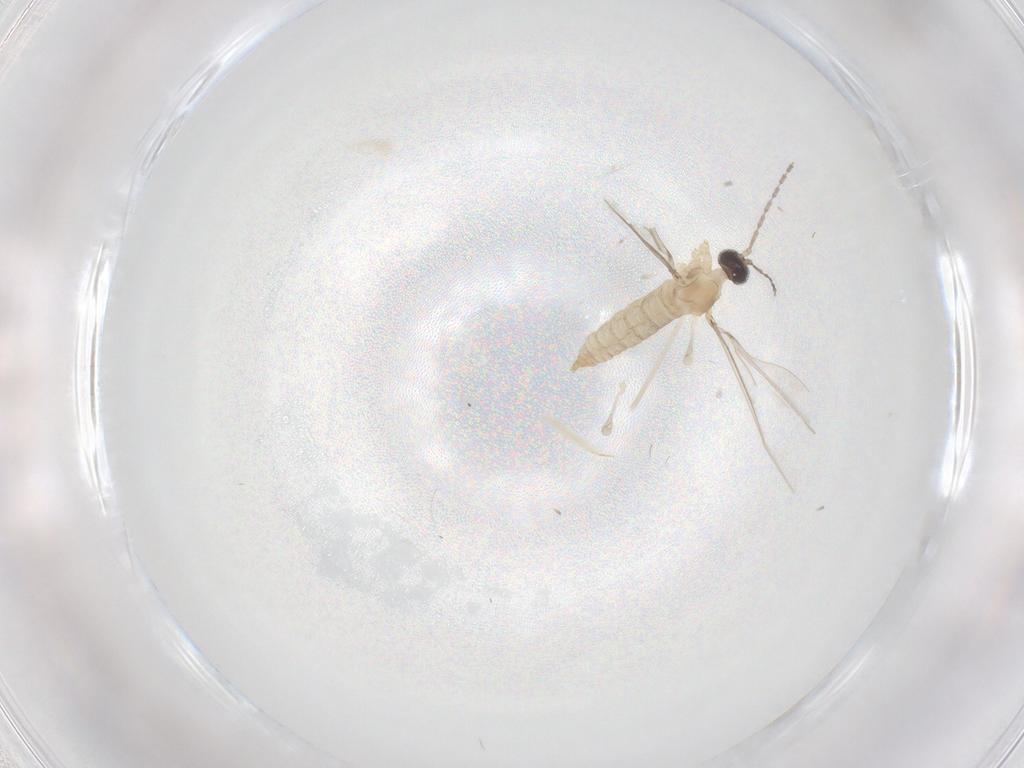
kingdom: Animalia
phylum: Arthropoda
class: Insecta
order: Diptera
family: Cecidomyiidae
